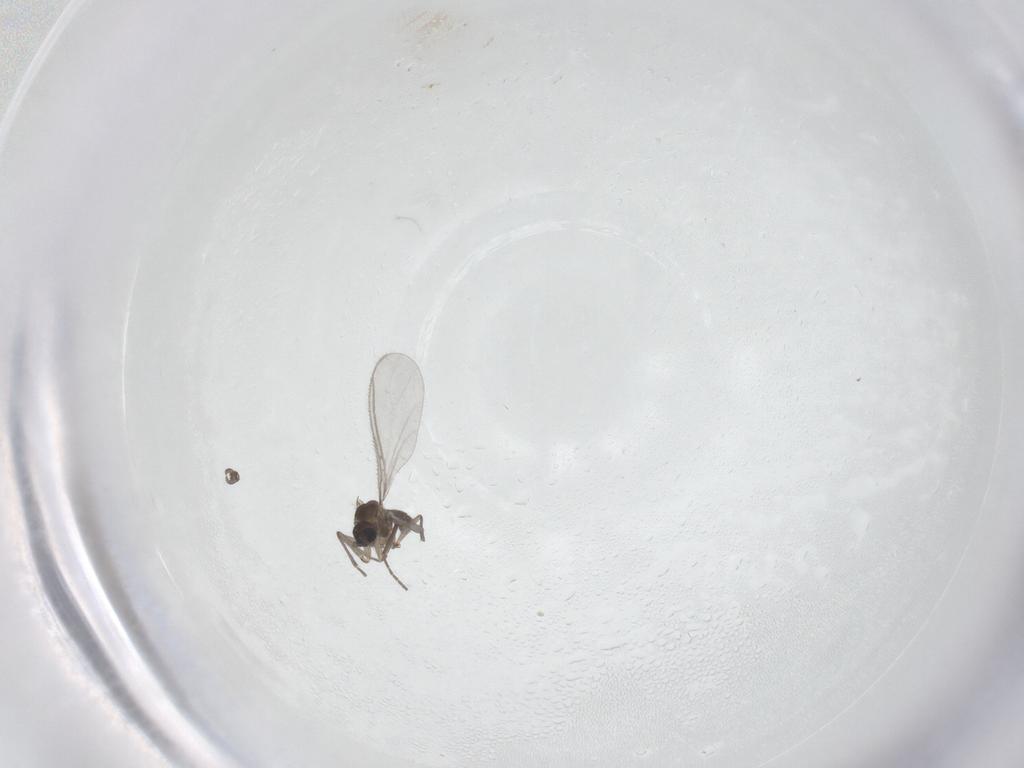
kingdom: Animalia
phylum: Arthropoda
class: Insecta
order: Diptera
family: Sciaridae
